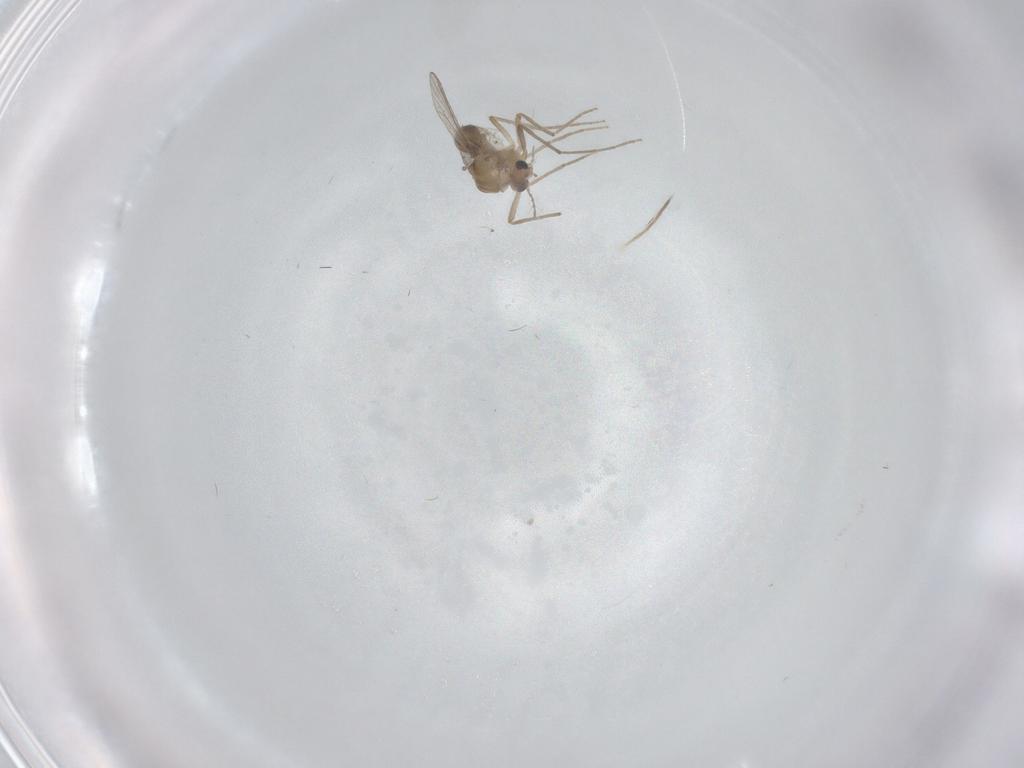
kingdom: Animalia
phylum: Arthropoda
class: Insecta
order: Diptera
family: Chironomidae
